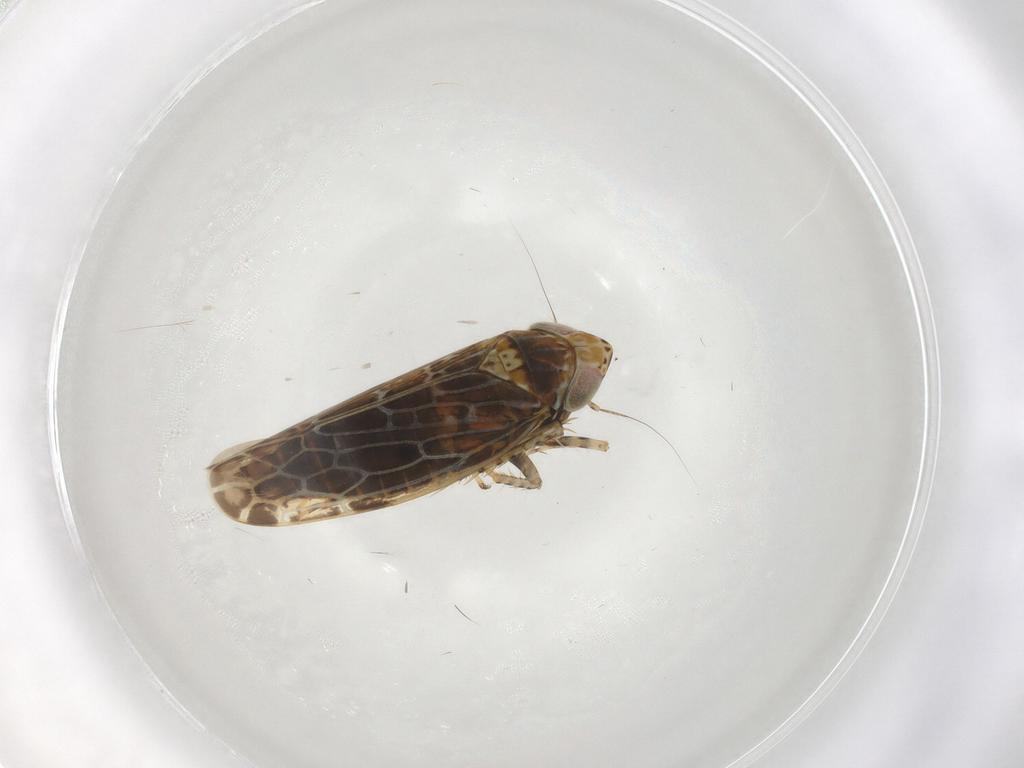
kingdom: Animalia
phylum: Arthropoda
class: Insecta
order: Hemiptera
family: Cicadellidae
